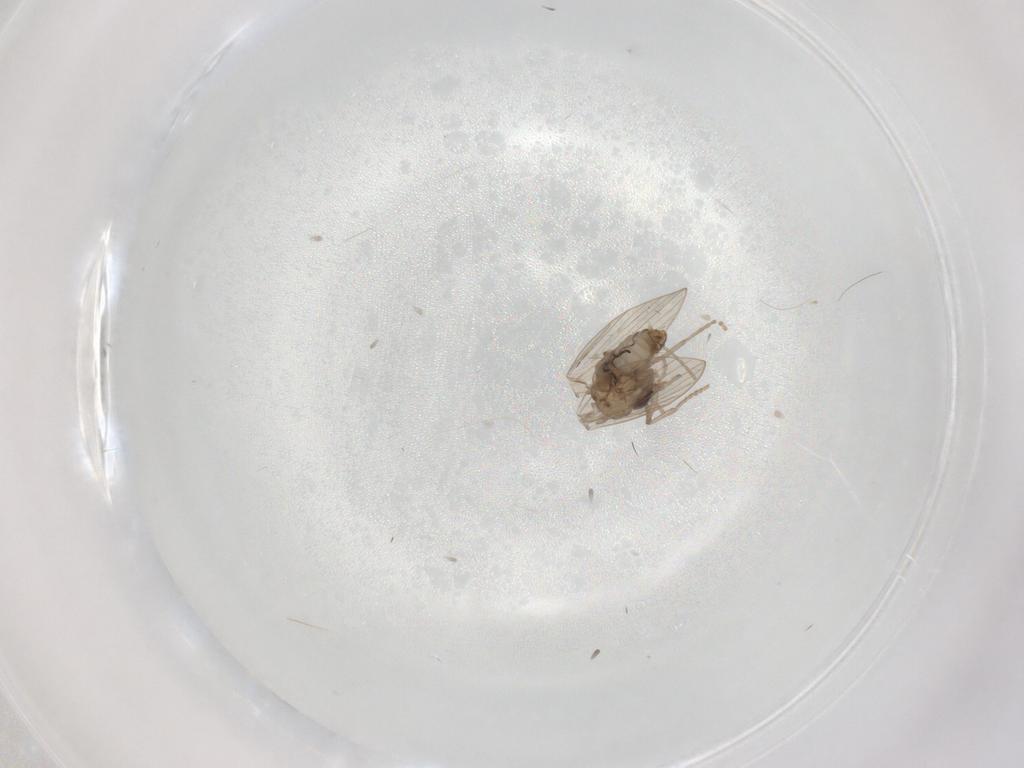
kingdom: Animalia
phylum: Arthropoda
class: Insecta
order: Diptera
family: Psychodidae
